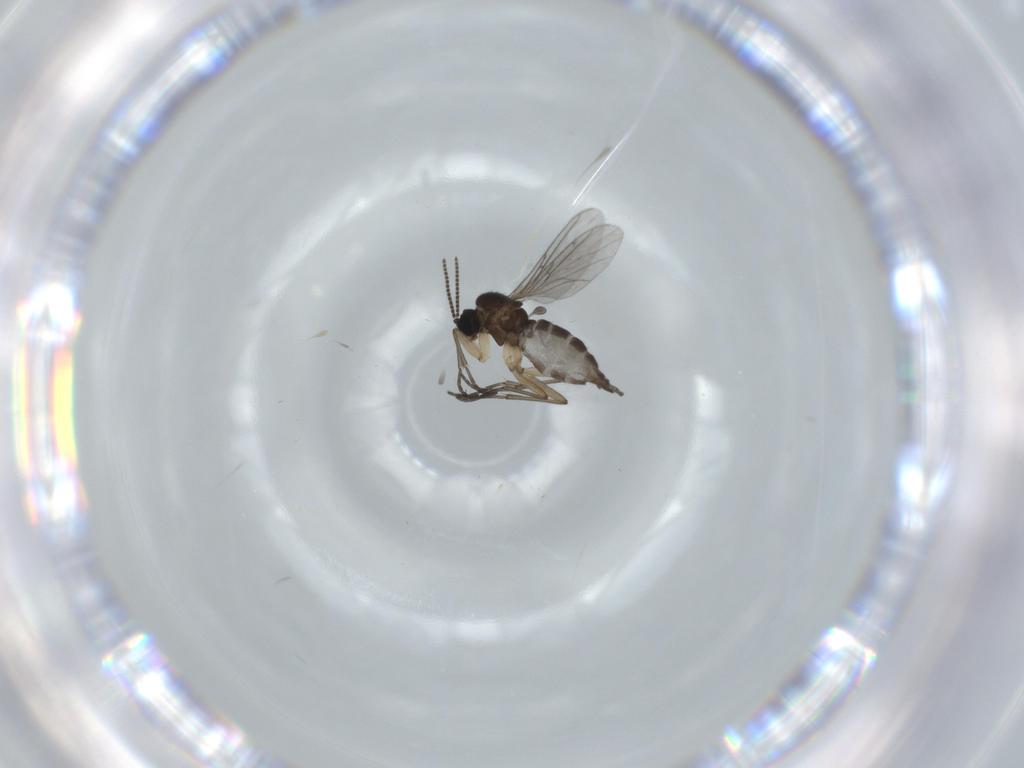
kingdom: Animalia
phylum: Arthropoda
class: Insecta
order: Diptera
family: Sciaridae
